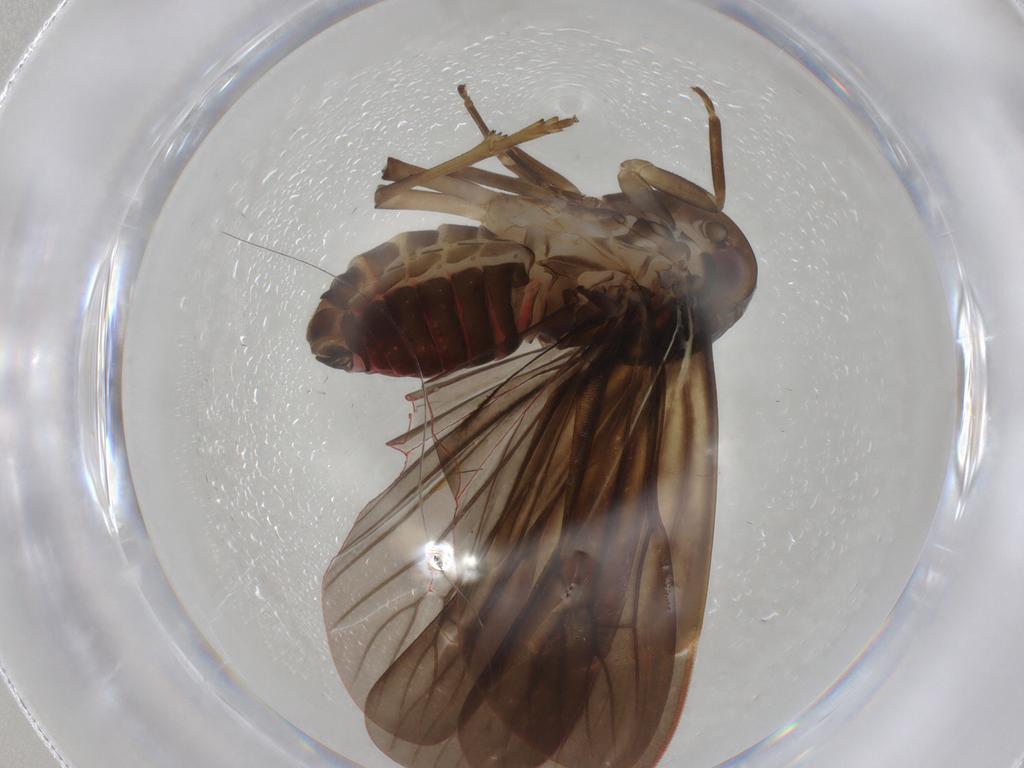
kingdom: Animalia
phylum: Arthropoda
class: Insecta
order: Hemiptera
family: Achilidae
